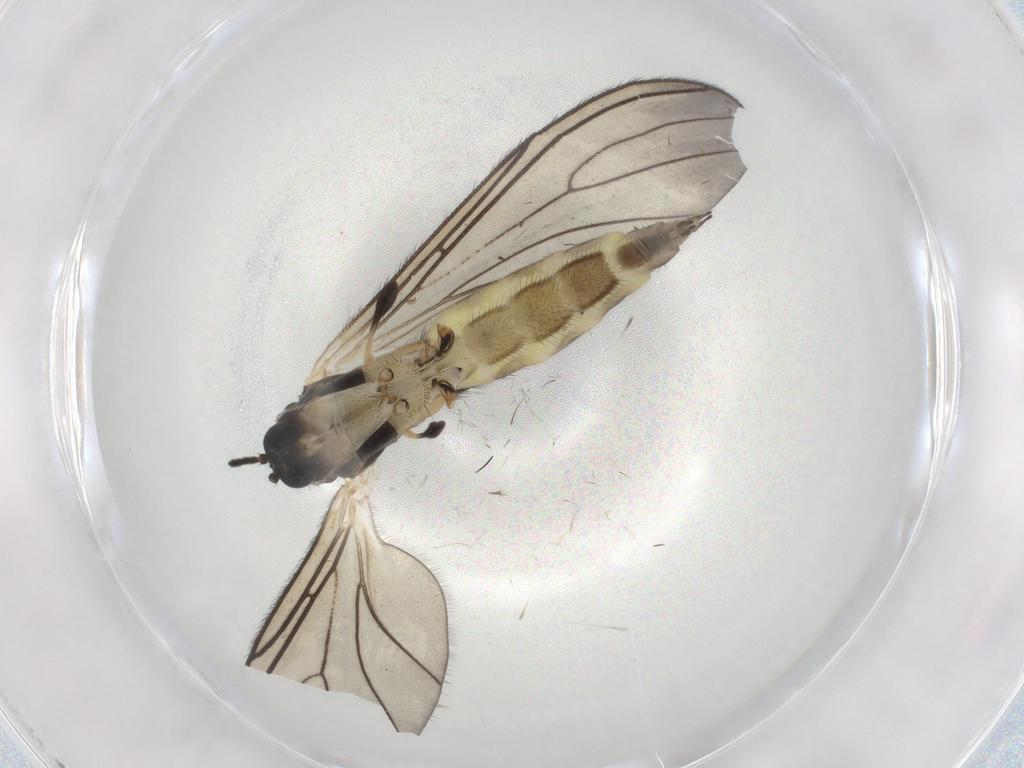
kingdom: Animalia
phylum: Arthropoda
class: Insecta
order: Diptera
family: Sciaridae
